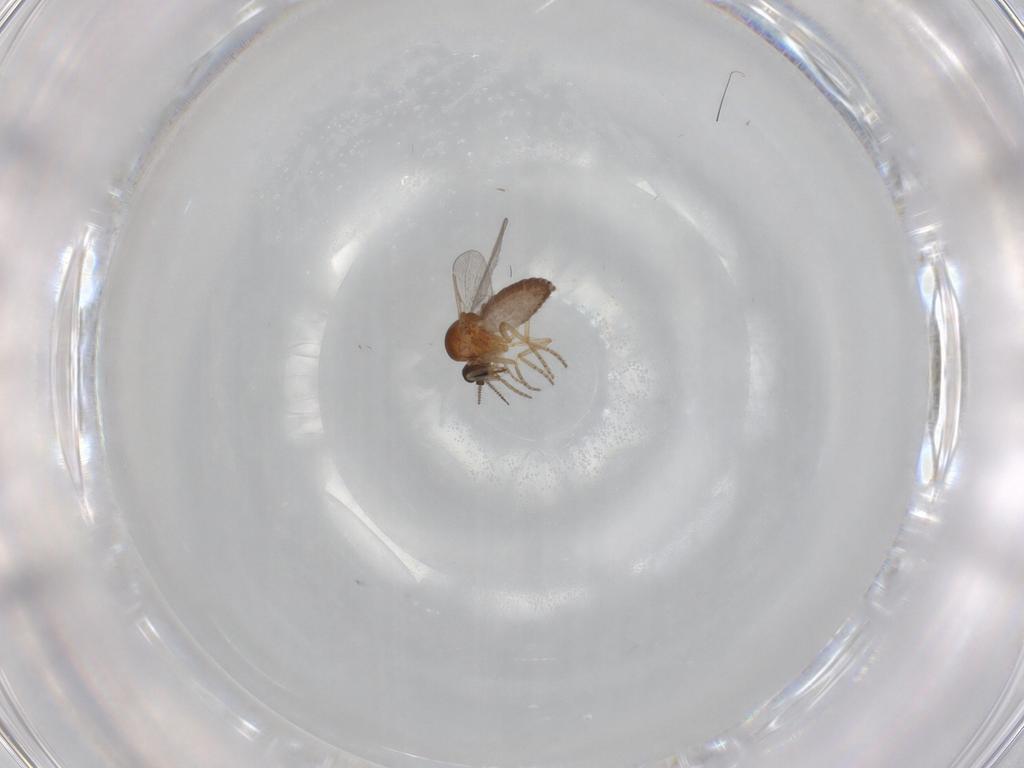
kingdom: Animalia
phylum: Arthropoda
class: Insecta
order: Diptera
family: Ceratopogonidae
